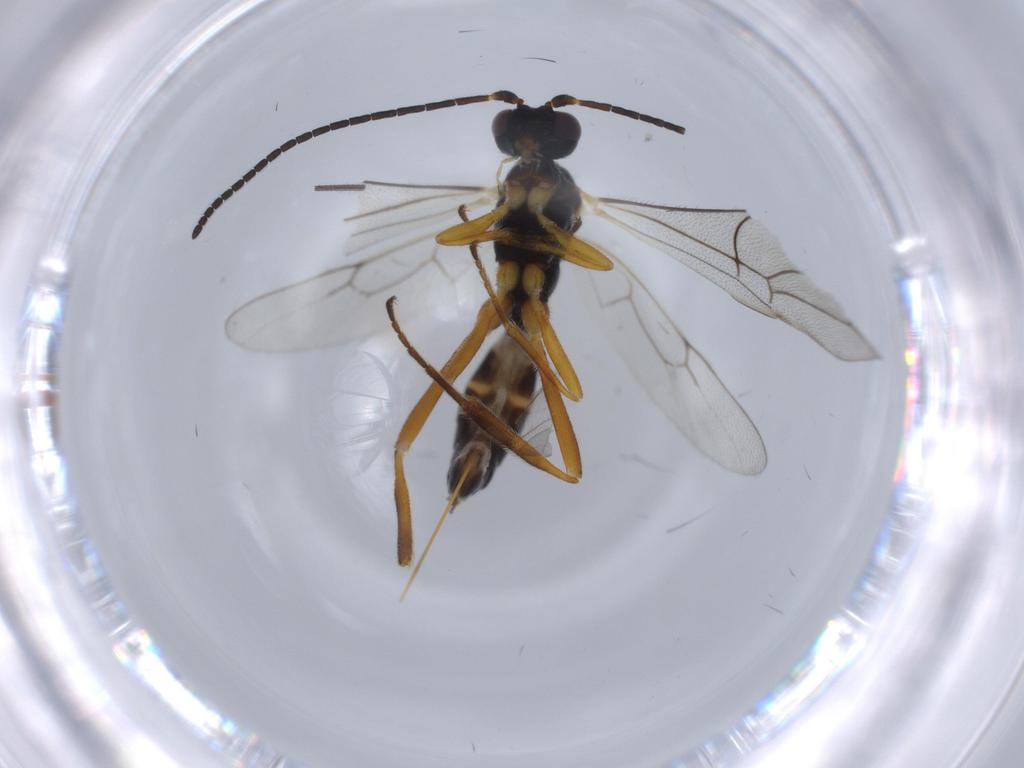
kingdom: Animalia
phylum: Arthropoda
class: Insecta
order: Hymenoptera
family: Ichneumonidae
